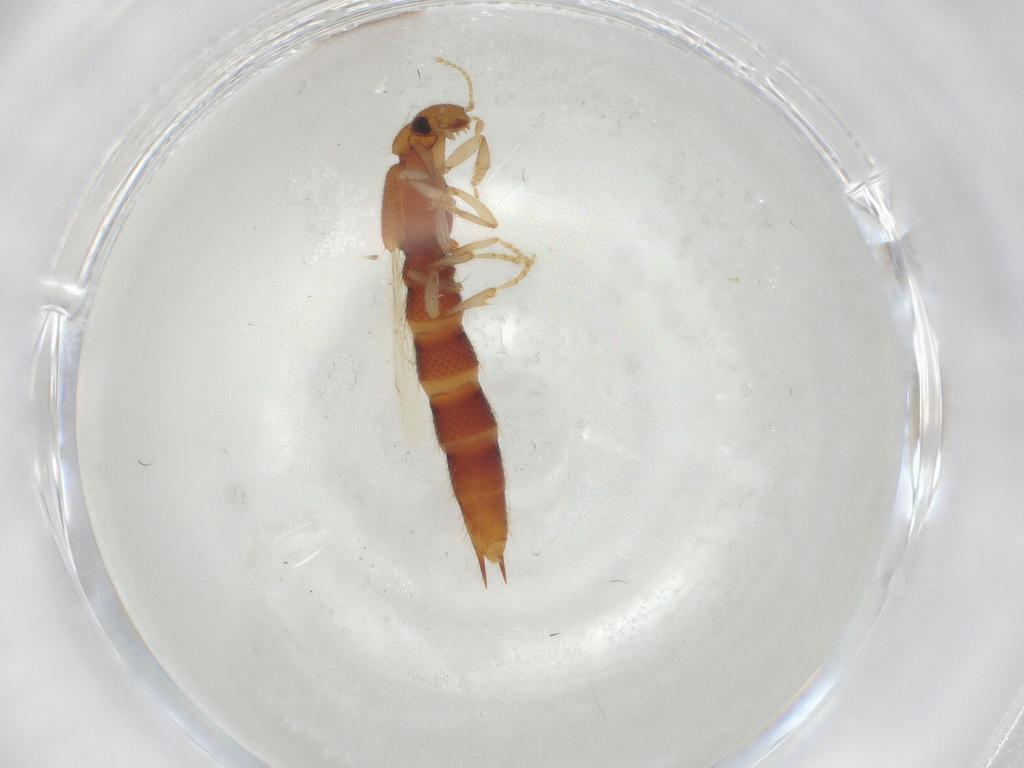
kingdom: Animalia
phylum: Arthropoda
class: Insecta
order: Coleoptera
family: Staphylinidae
